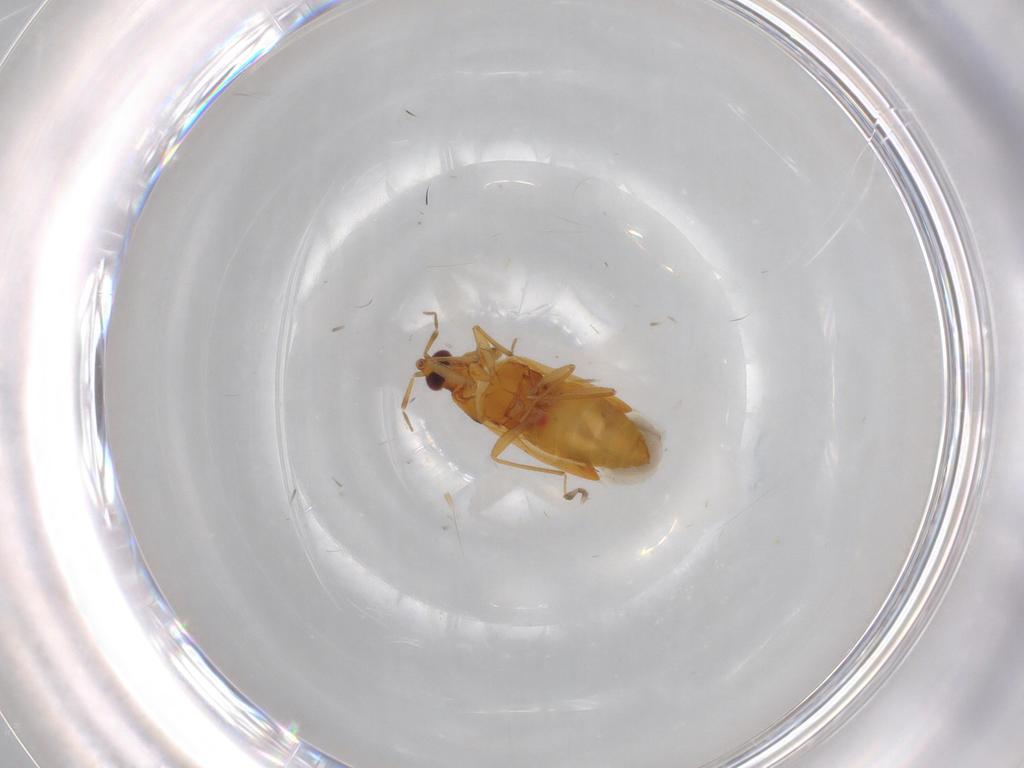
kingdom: Animalia
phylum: Arthropoda
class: Insecta
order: Hemiptera
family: Anthocoridae
